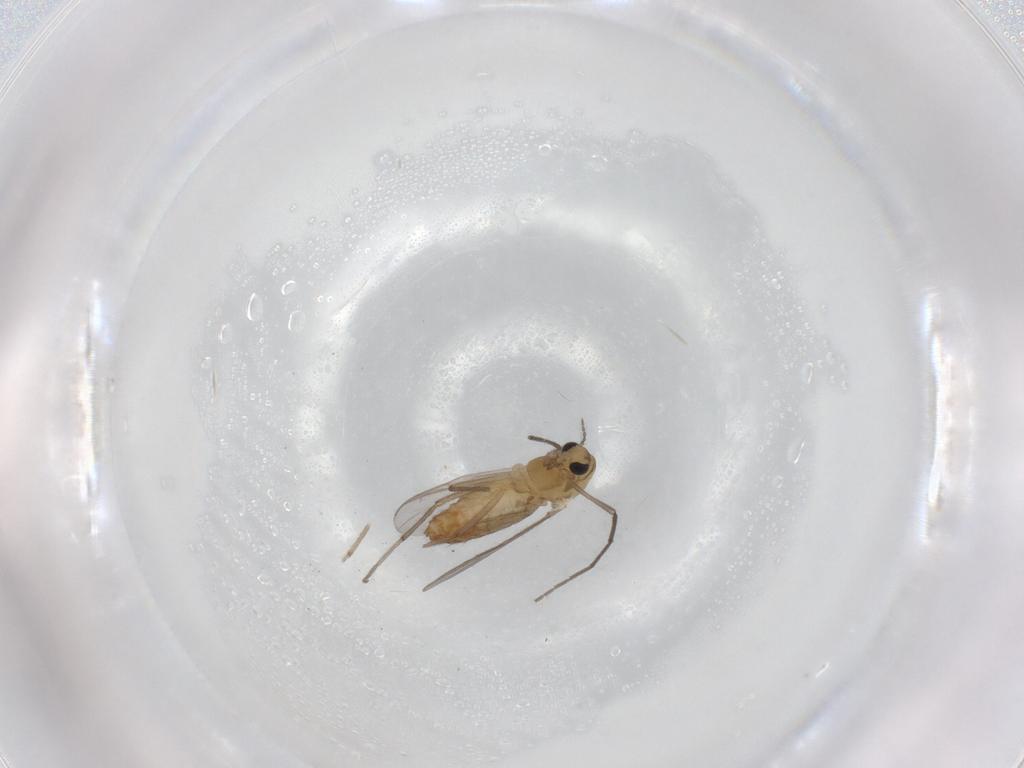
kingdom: Animalia
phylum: Arthropoda
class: Insecta
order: Diptera
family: Chironomidae
